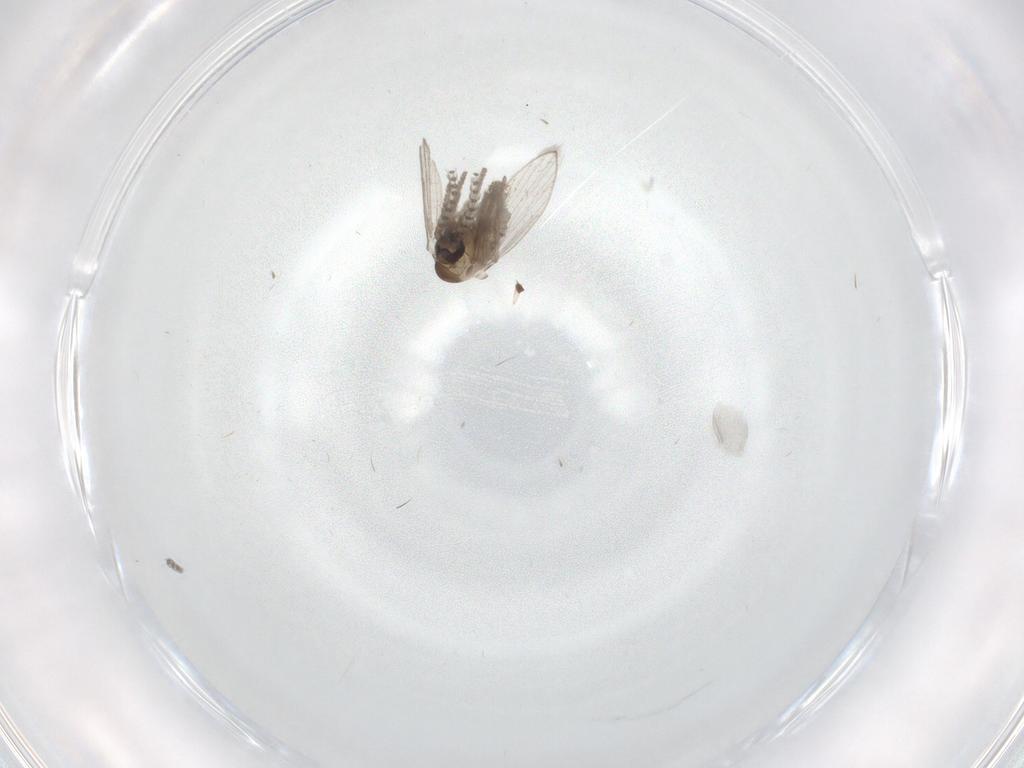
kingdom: Animalia
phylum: Arthropoda
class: Insecta
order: Diptera
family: Psychodidae
